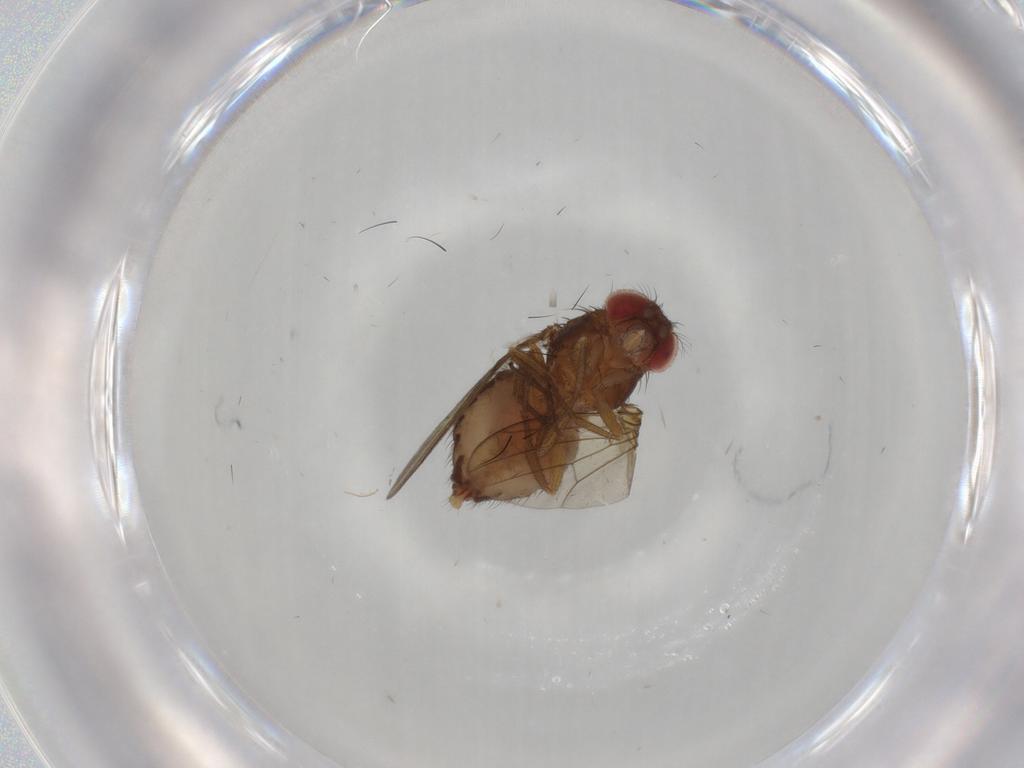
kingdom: Animalia
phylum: Arthropoda
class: Insecta
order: Diptera
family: Drosophilidae
